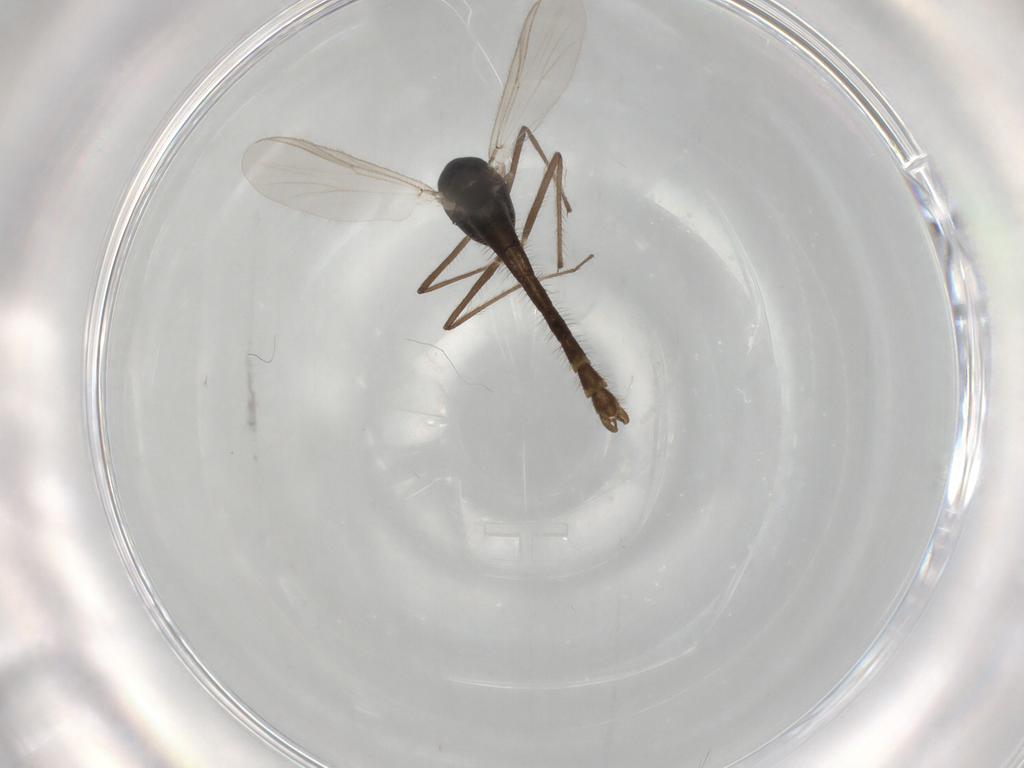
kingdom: Animalia
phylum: Arthropoda
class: Insecta
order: Diptera
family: Chironomidae
